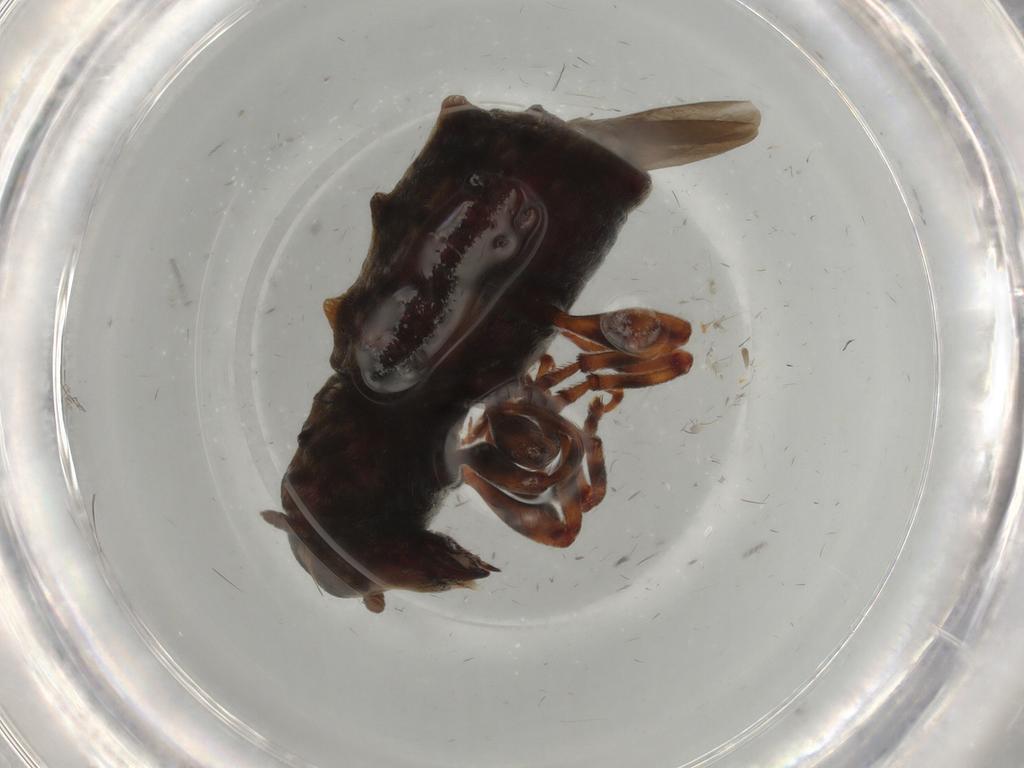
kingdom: Animalia
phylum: Arthropoda
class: Insecta
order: Coleoptera
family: Anthribidae
